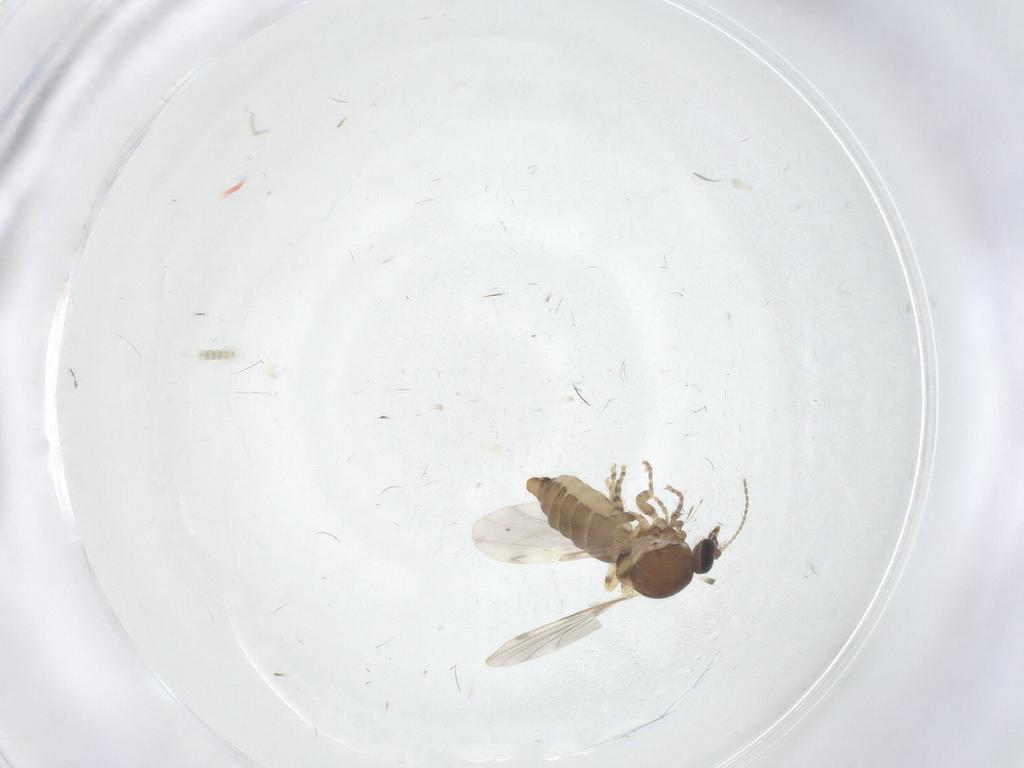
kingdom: Animalia
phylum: Arthropoda
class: Insecta
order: Diptera
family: Ceratopogonidae
